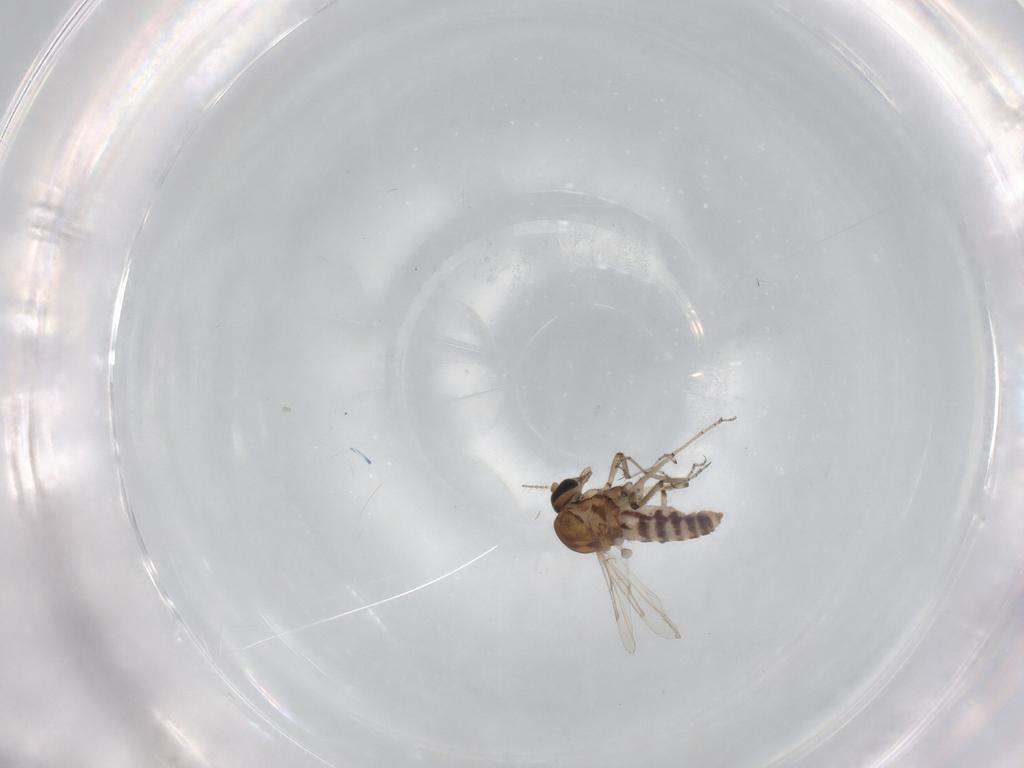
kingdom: Animalia
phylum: Arthropoda
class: Insecta
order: Diptera
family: Ceratopogonidae
